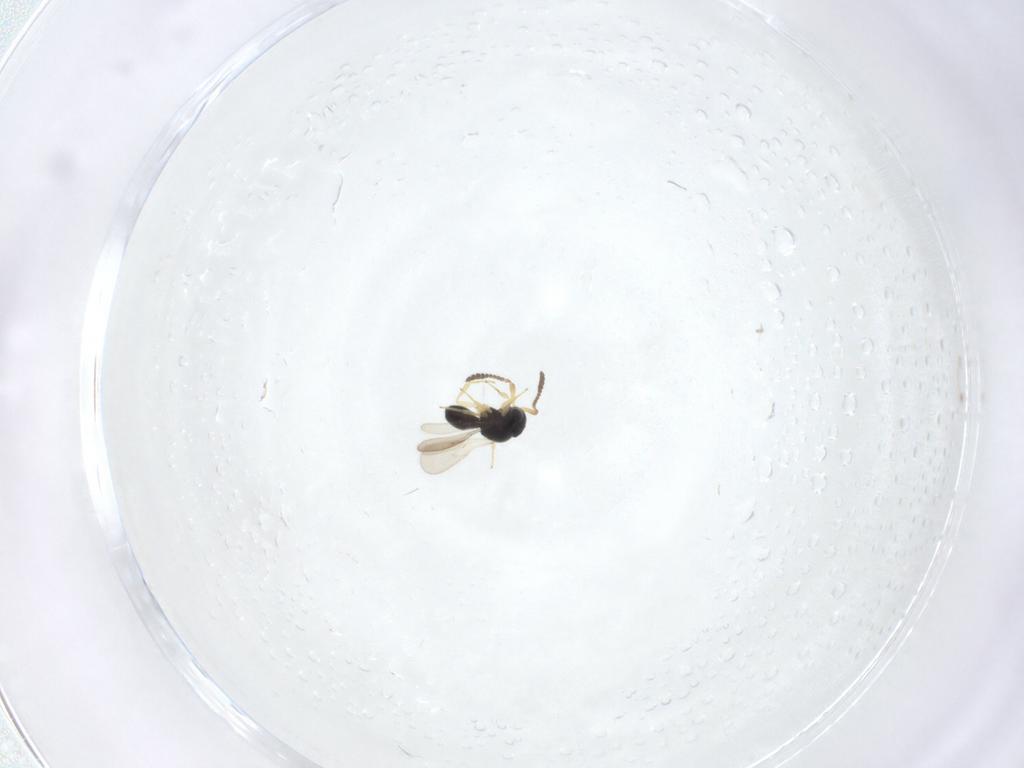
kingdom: Animalia
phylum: Arthropoda
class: Insecta
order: Hymenoptera
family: Scelionidae
